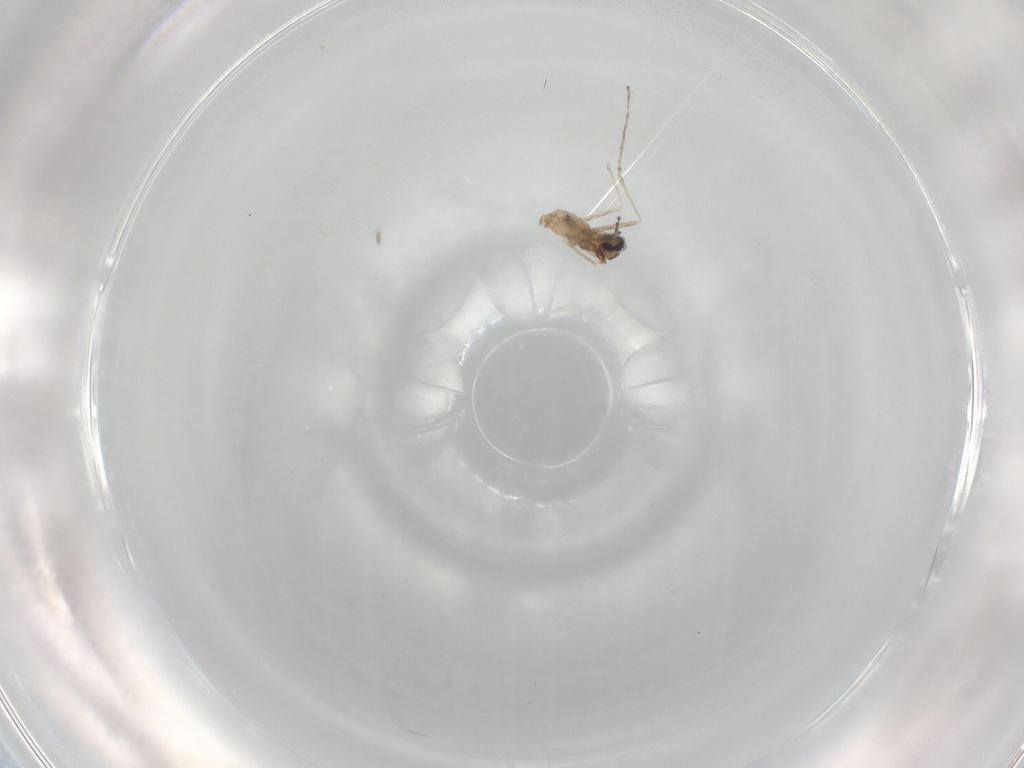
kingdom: Animalia
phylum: Arthropoda
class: Insecta
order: Diptera
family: Cecidomyiidae
